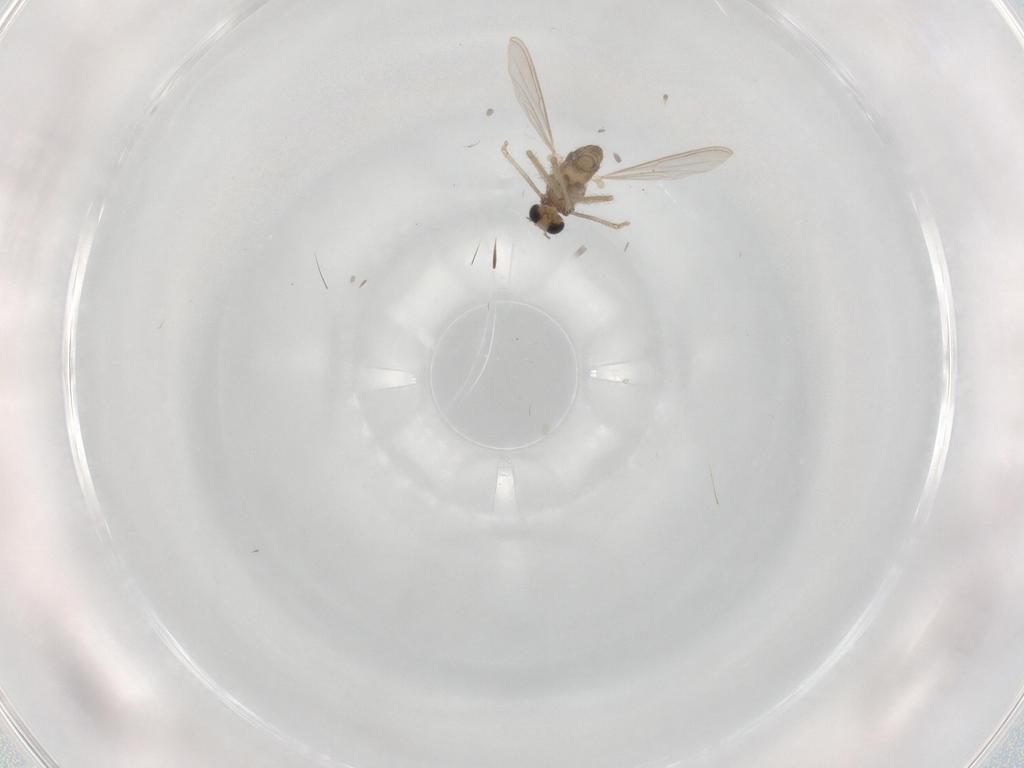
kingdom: Animalia
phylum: Arthropoda
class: Insecta
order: Diptera
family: Chironomidae
